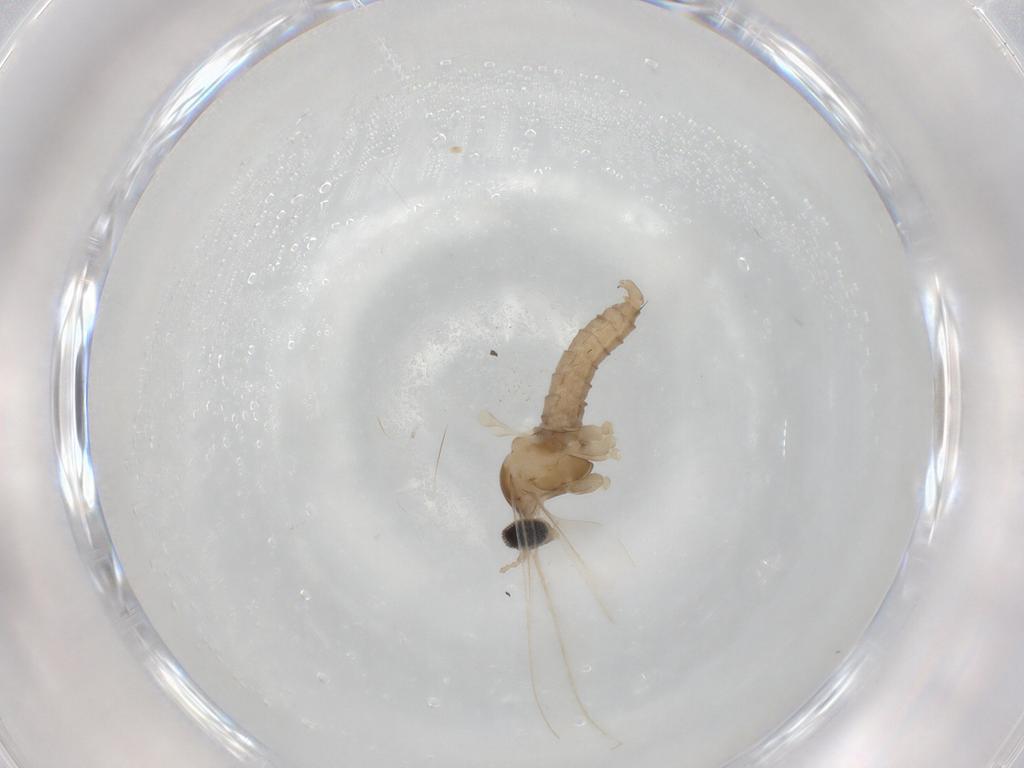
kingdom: Animalia
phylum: Arthropoda
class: Insecta
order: Diptera
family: Cecidomyiidae
